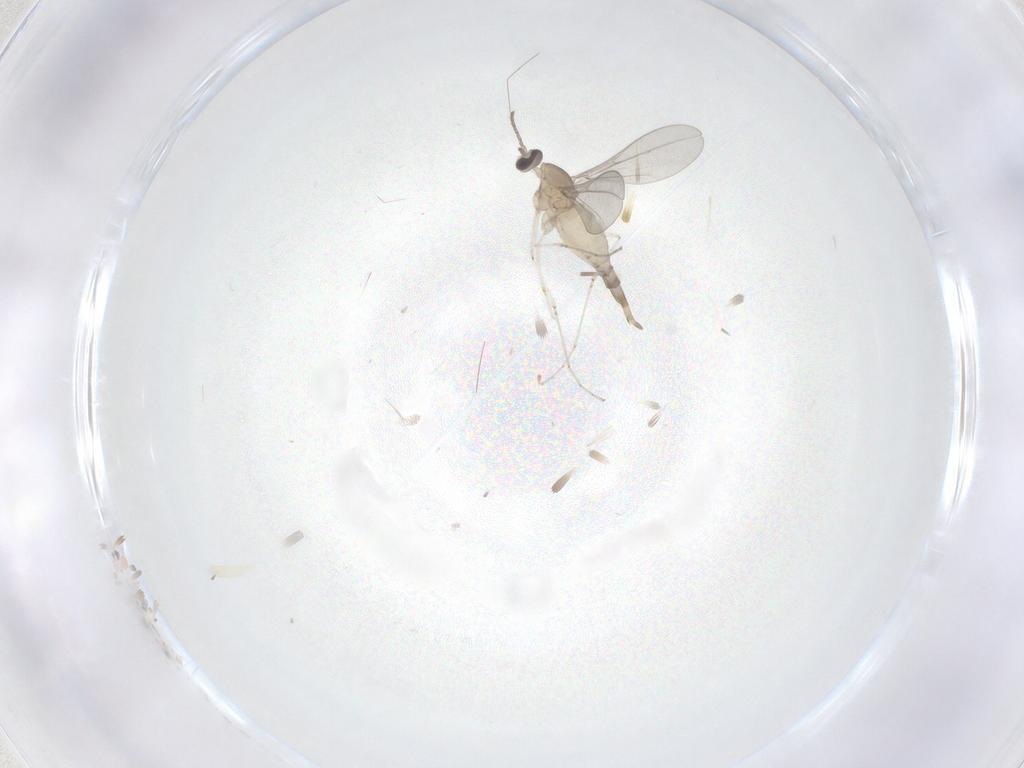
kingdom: Animalia
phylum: Arthropoda
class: Insecta
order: Diptera
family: Cecidomyiidae
